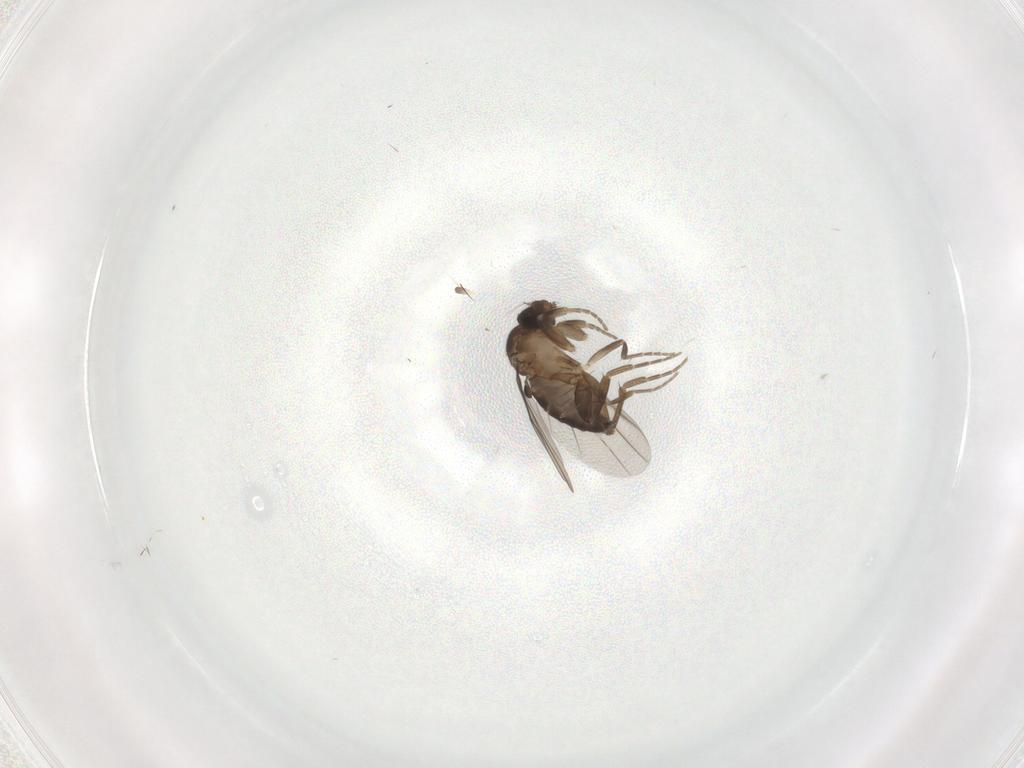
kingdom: Animalia
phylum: Arthropoda
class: Insecta
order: Diptera
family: Phoridae
